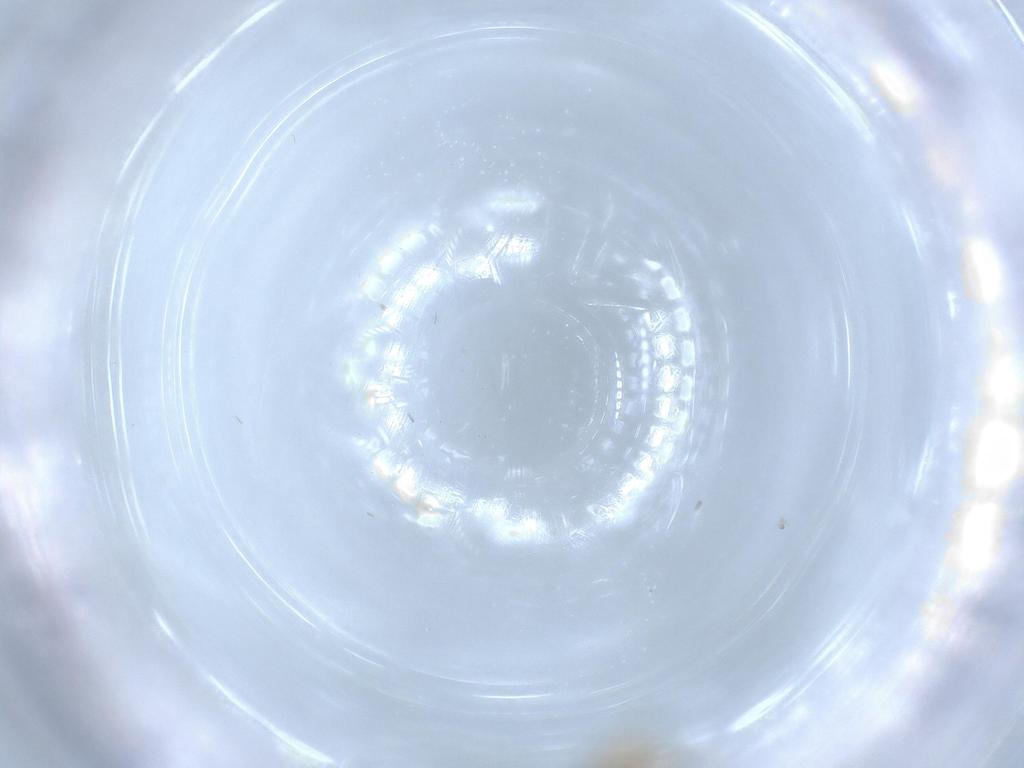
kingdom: Animalia
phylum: Arthropoda
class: Insecta
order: Diptera
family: Ceratopogonidae
